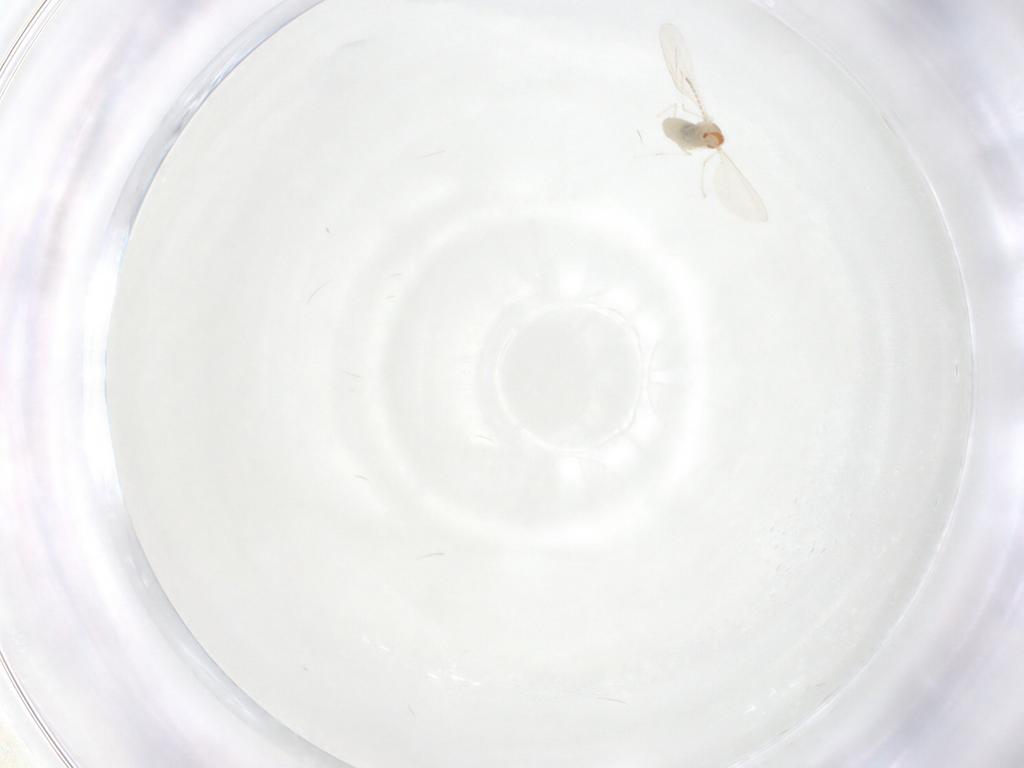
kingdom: Animalia
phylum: Arthropoda
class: Insecta
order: Diptera
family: Cecidomyiidae
